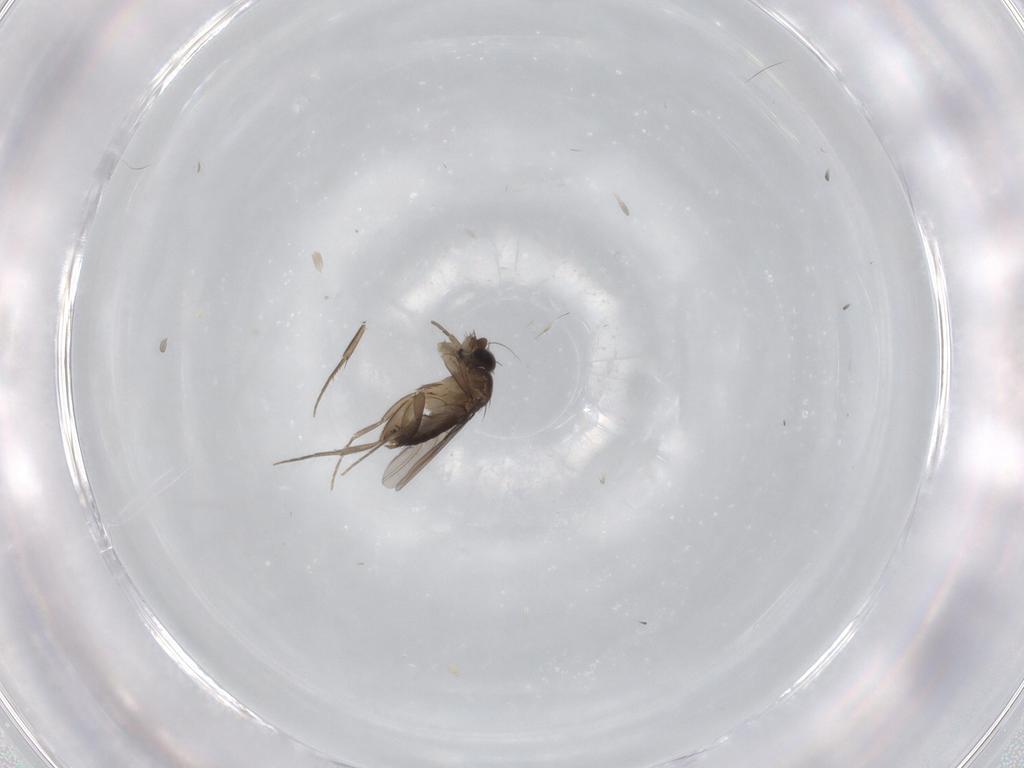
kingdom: Animalia
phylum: Arthropoda
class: Insecta
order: Diptera
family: Phoridae
